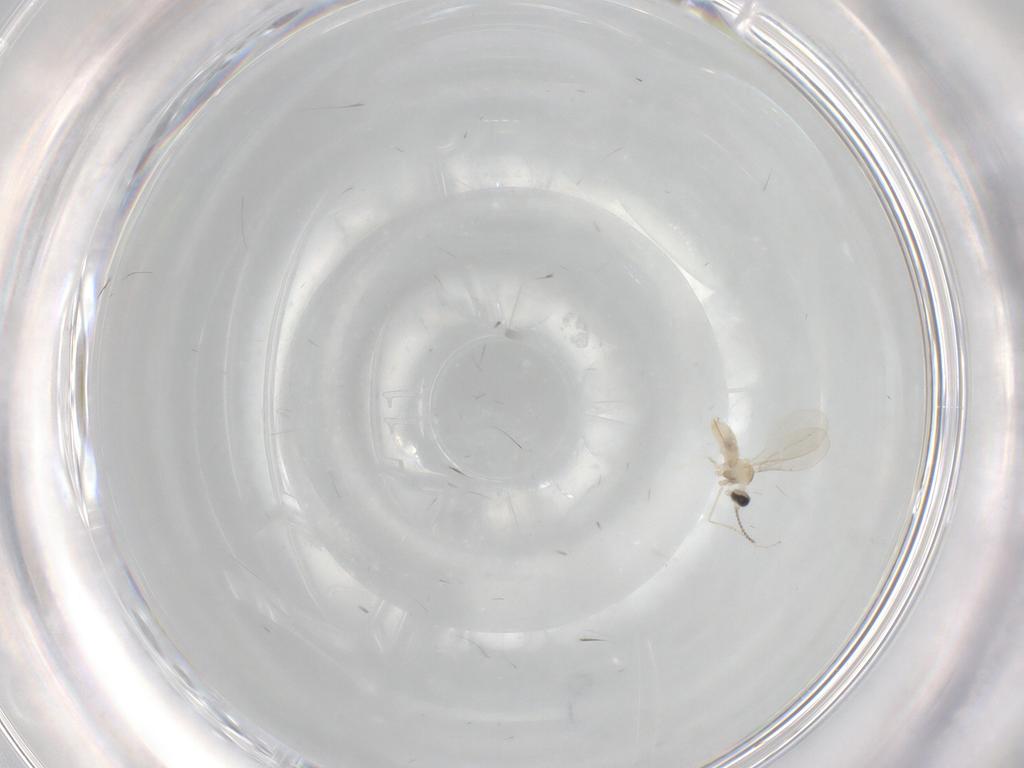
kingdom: Animalia
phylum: Arthropoda
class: Insecta
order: Diptera
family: Sciaridae
